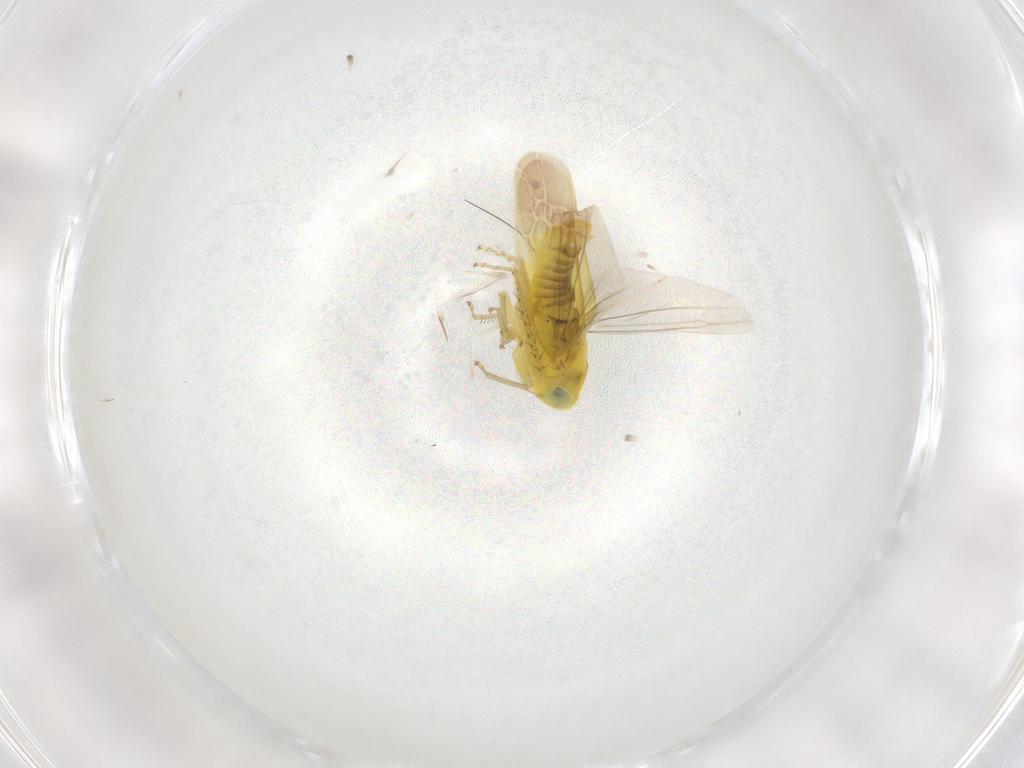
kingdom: Animalia
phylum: Arthropoda
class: Insecta
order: Hemiptera
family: Cicadellidae
